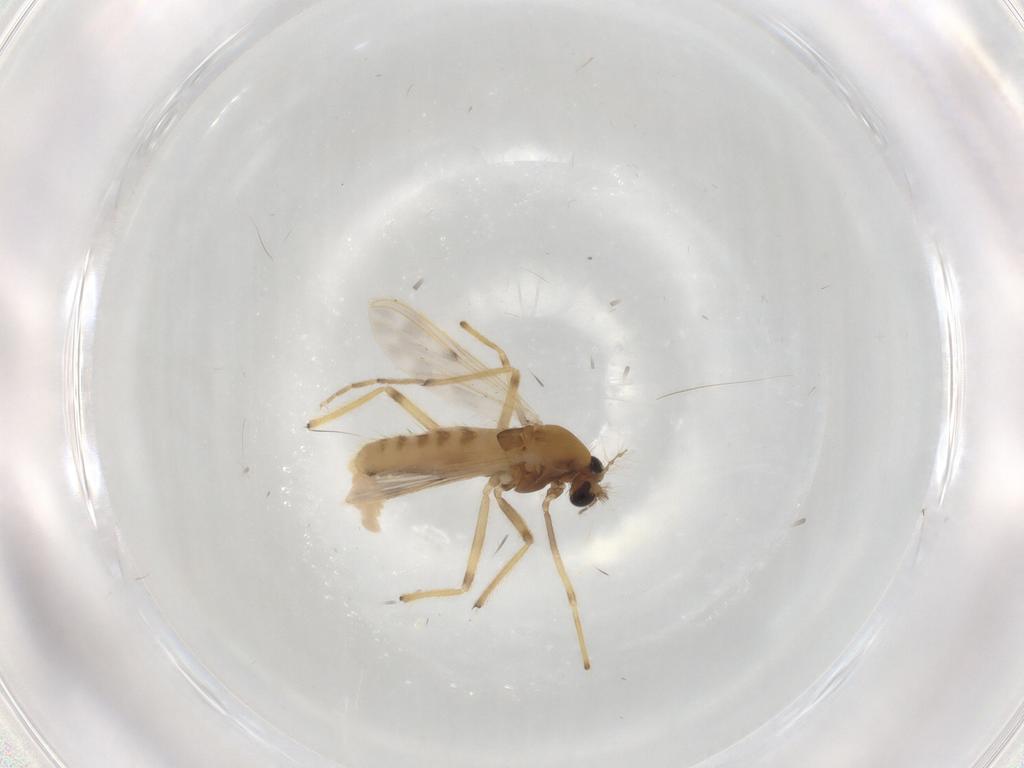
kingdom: Animalia
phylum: Arthropoda
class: Insecta
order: Diptera
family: Chironomidae
